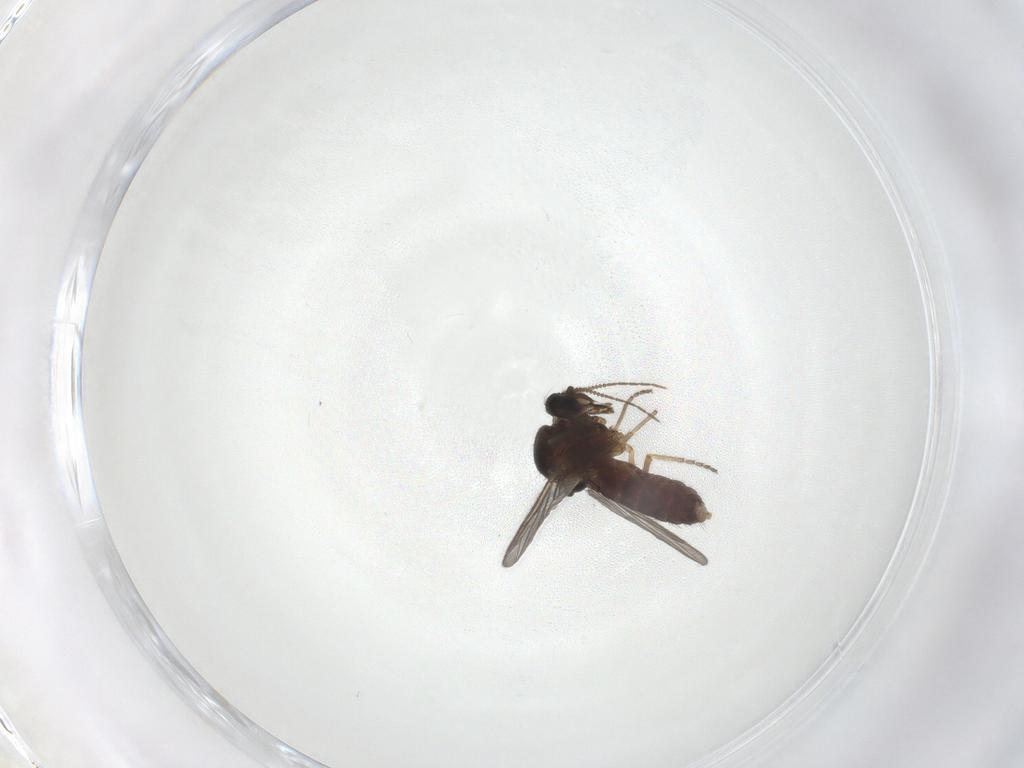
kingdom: Animalia
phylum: Arthropoda
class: Insecta
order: Diptera
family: Ceratopogonidae
